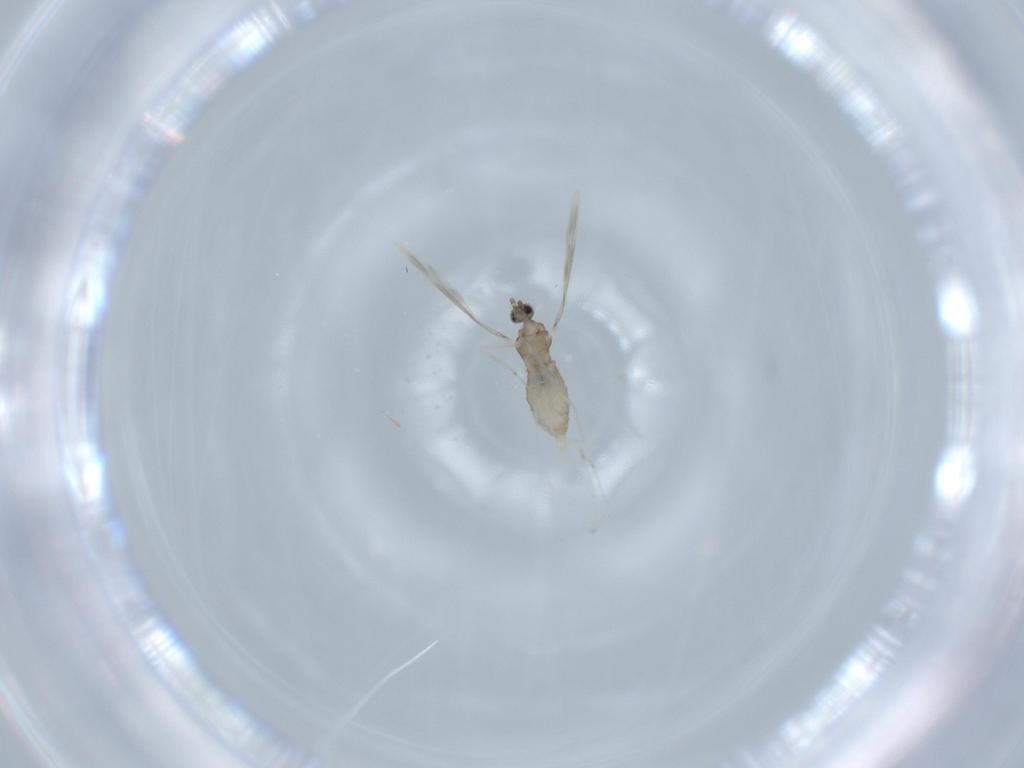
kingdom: Animalia
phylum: Arthropoda
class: Insecta
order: Diptera
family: Cecidomyiidae
